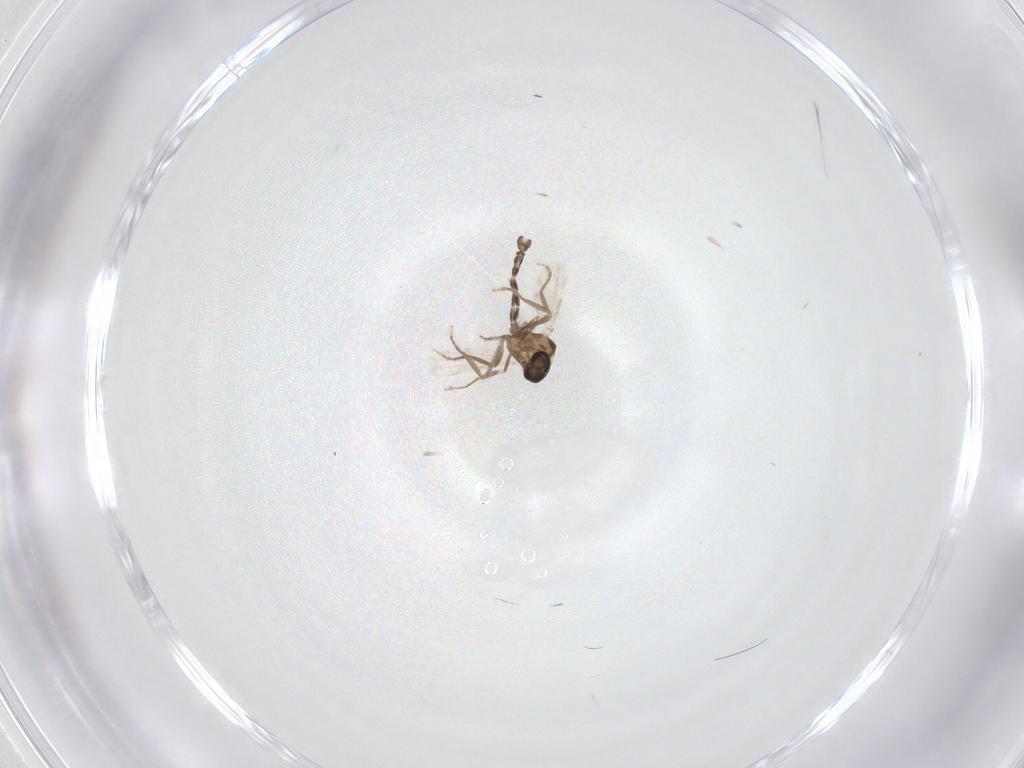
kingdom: Animalia
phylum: Arthropoda
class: Insecta
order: Diptera
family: Ceratopogonidae
